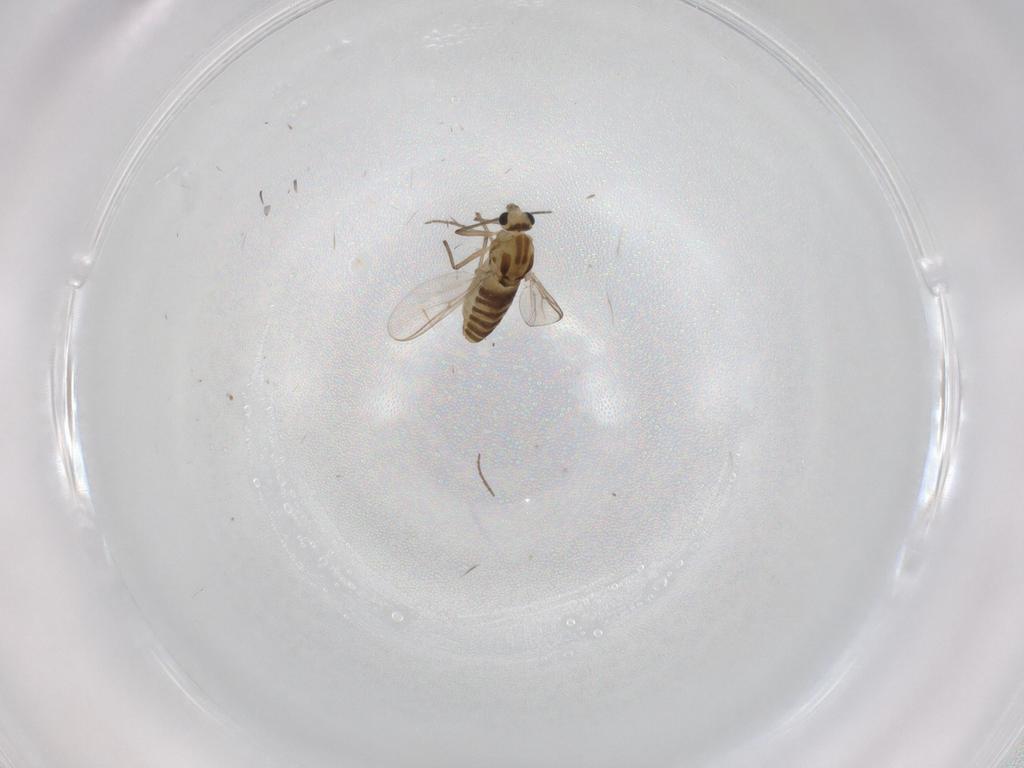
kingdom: Animalia
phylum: Arthropoda
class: Insecta
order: Diptera
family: Chironomidae
